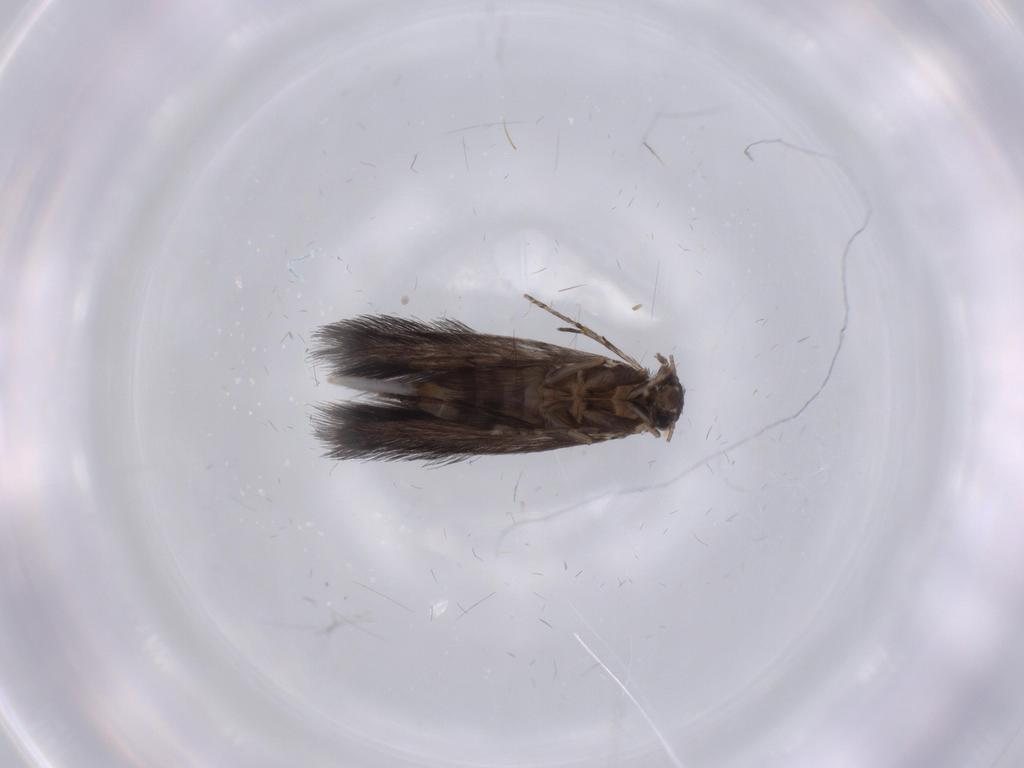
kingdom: Animalia
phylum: Arthropoda
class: Insecta
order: Trichoptera
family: Hydroptilidae
